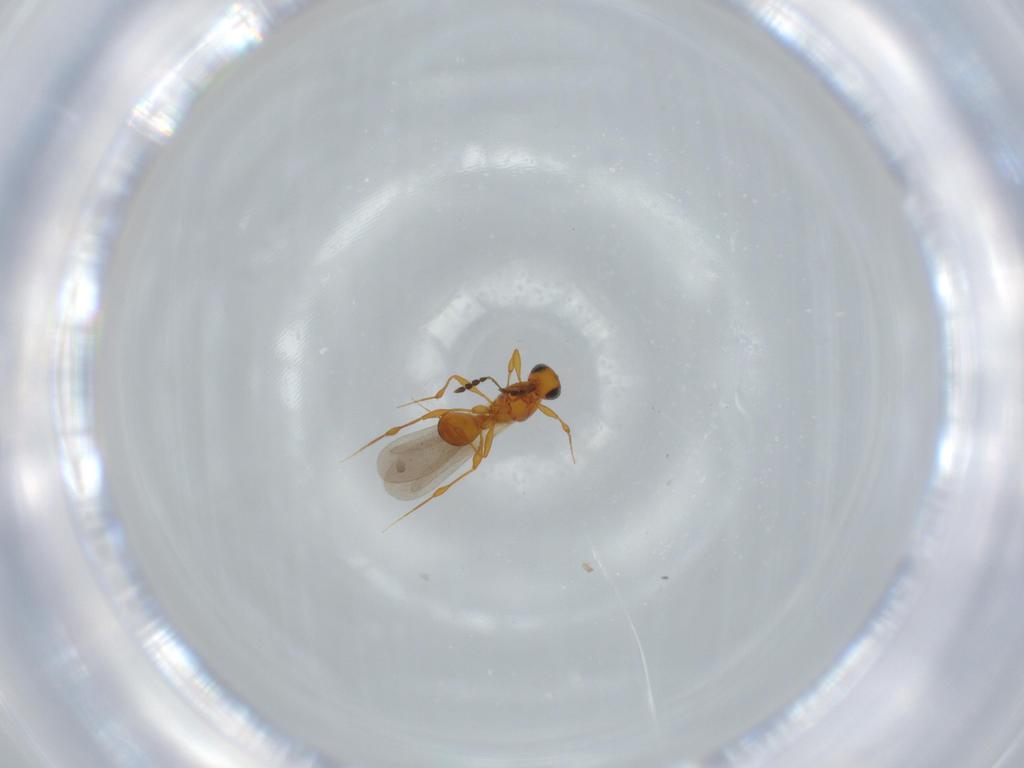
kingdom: Animalia
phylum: Arthropoda
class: Insecta
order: Hymenoptera
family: Platygastridae
